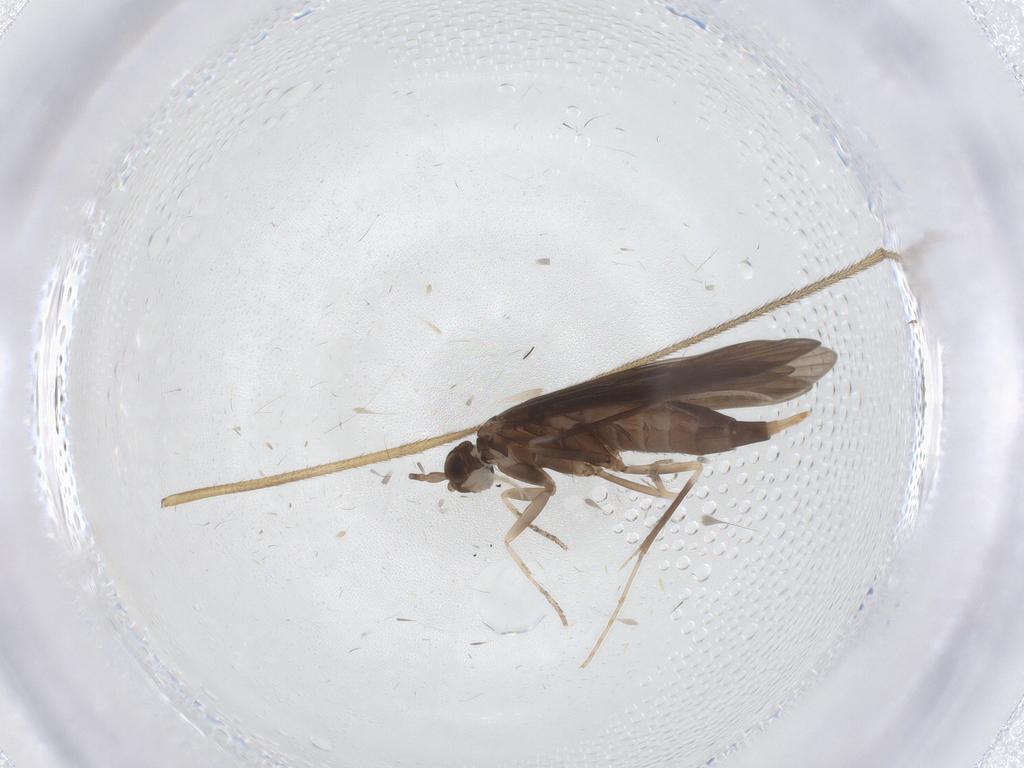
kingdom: Animalia
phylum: Arthropoda
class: Insecta
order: Trichoptera
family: Xiphocentronidae
